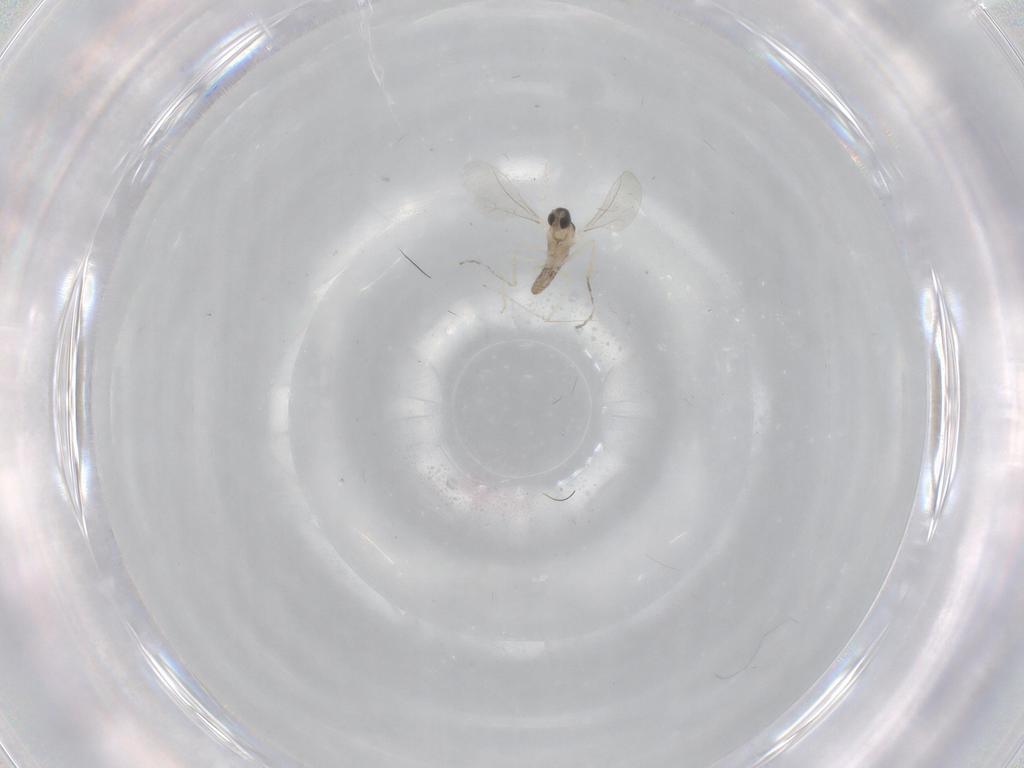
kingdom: Animalia
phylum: Arthropoda
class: Insecta
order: Diptera
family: Cecidomyiidae
